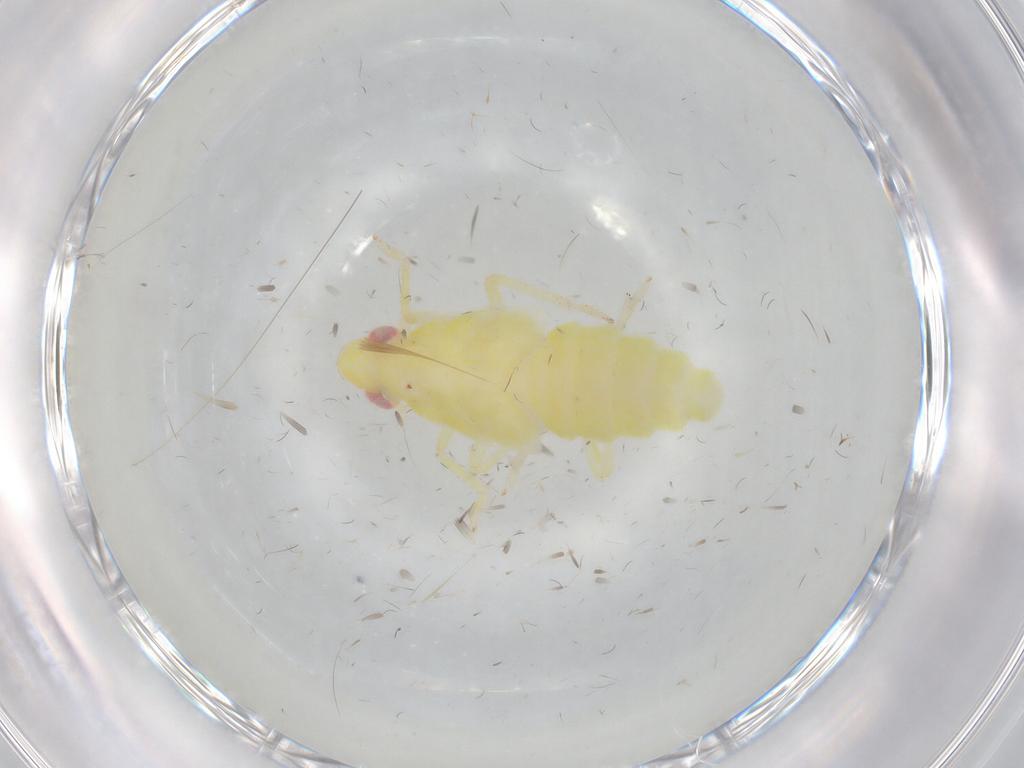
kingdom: Animalia
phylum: Arthropoda
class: Insecta
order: Hemiptera
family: Tropiduchidae
